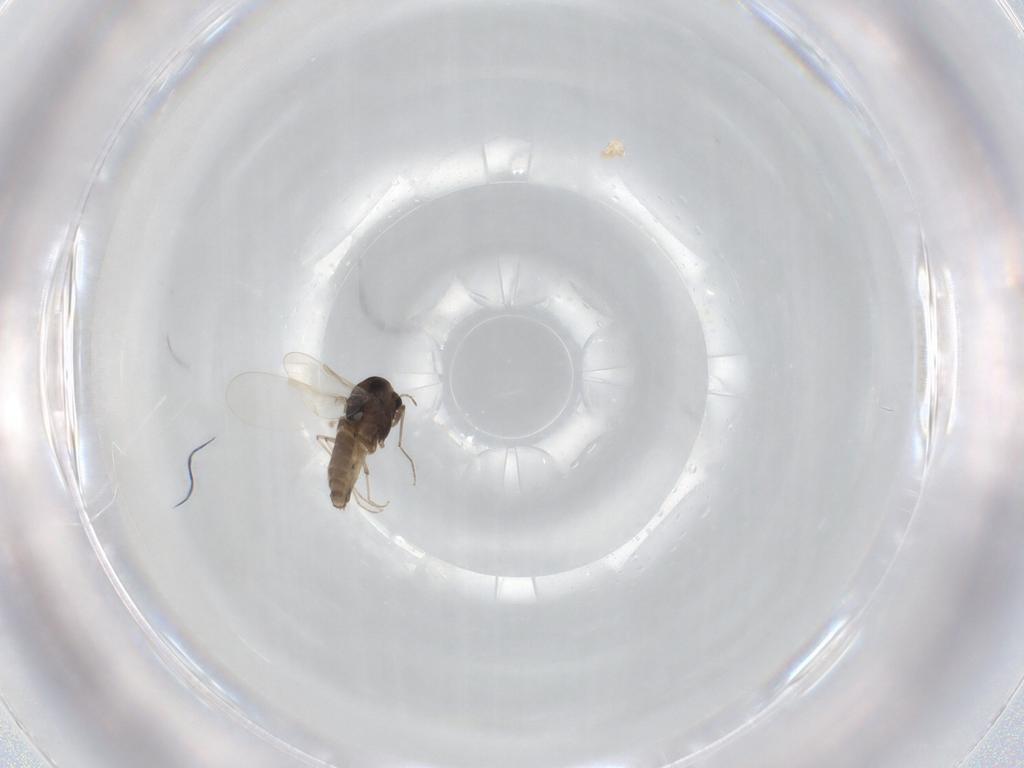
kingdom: Animalia
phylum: Arthropoda
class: Insecta
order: Diptera
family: Chironomidae
